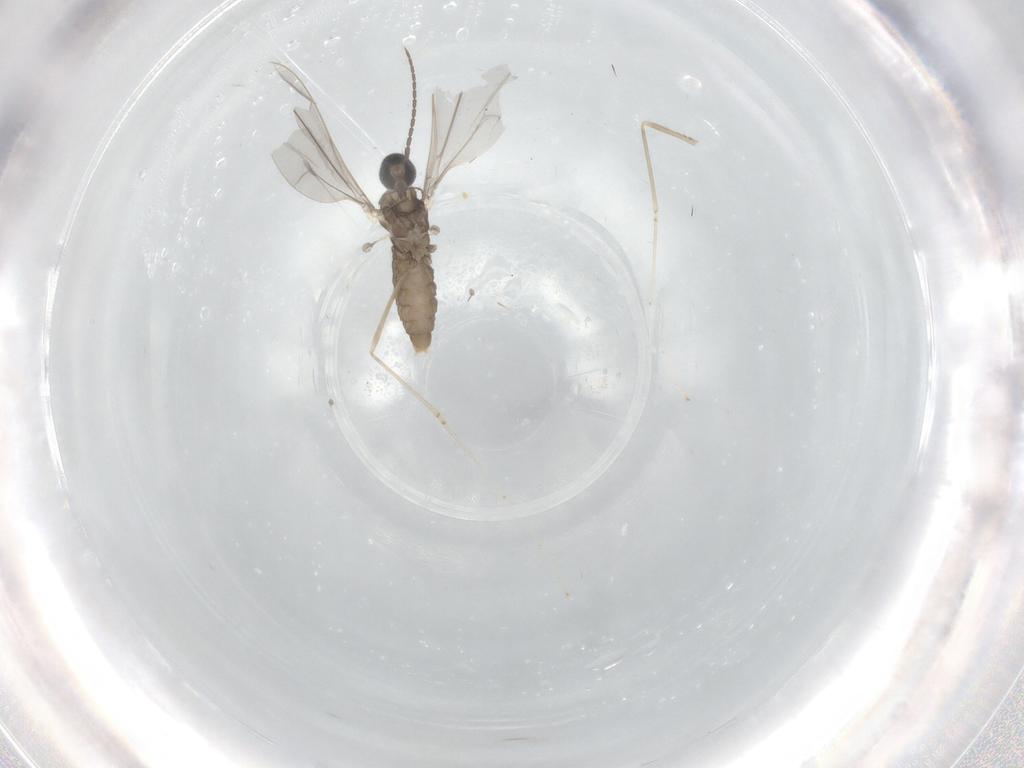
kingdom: Animalia
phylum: Arthropoda
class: Insecta
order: Diptera
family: Cecidomyiidae
